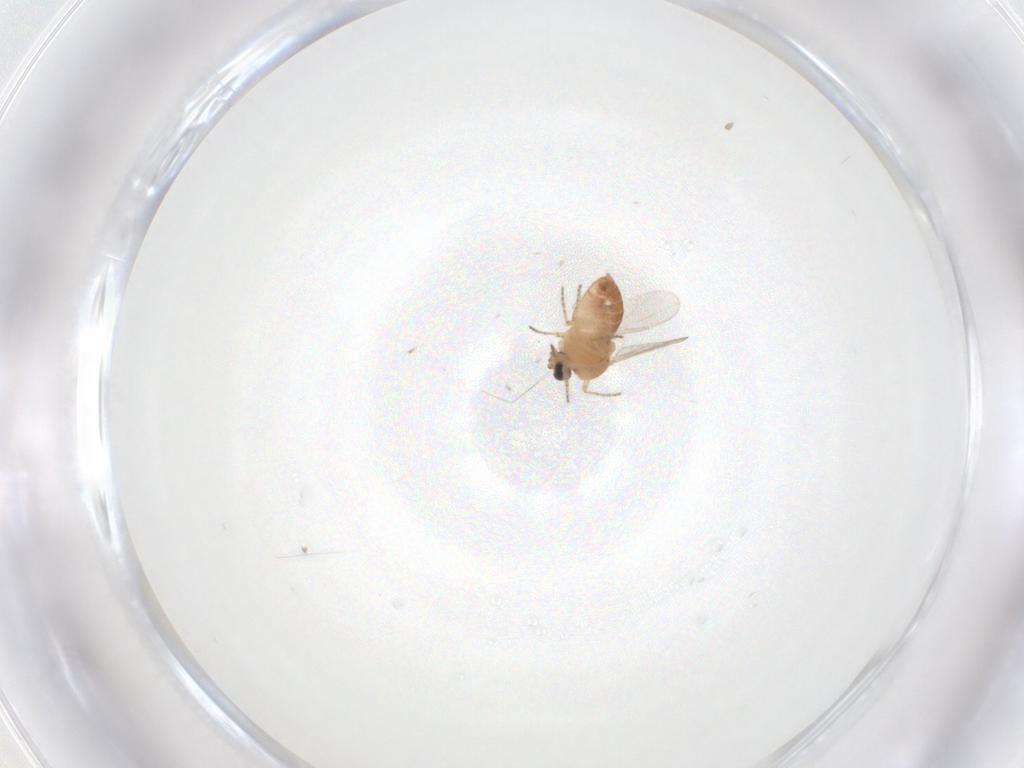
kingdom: Animalia
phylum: Arthropoda
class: Insecta
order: Diptera
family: Ceratopogonidae
